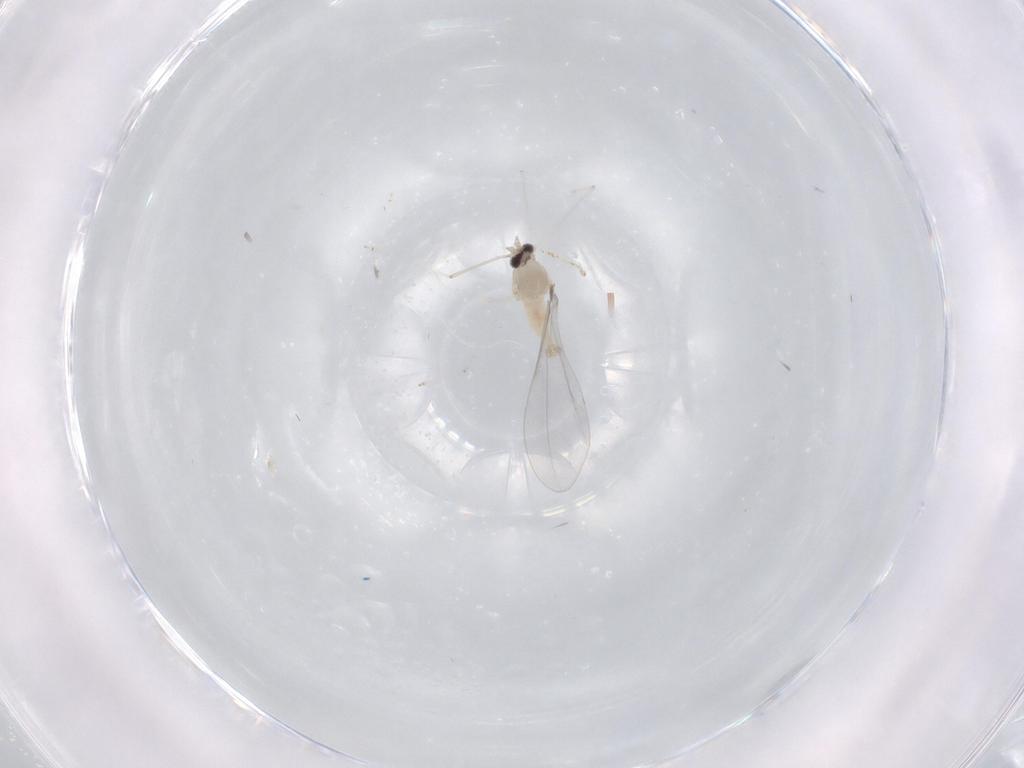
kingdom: Animalia
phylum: Arthropoda
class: Insecta
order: Diptera
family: Cecidomyiidae
